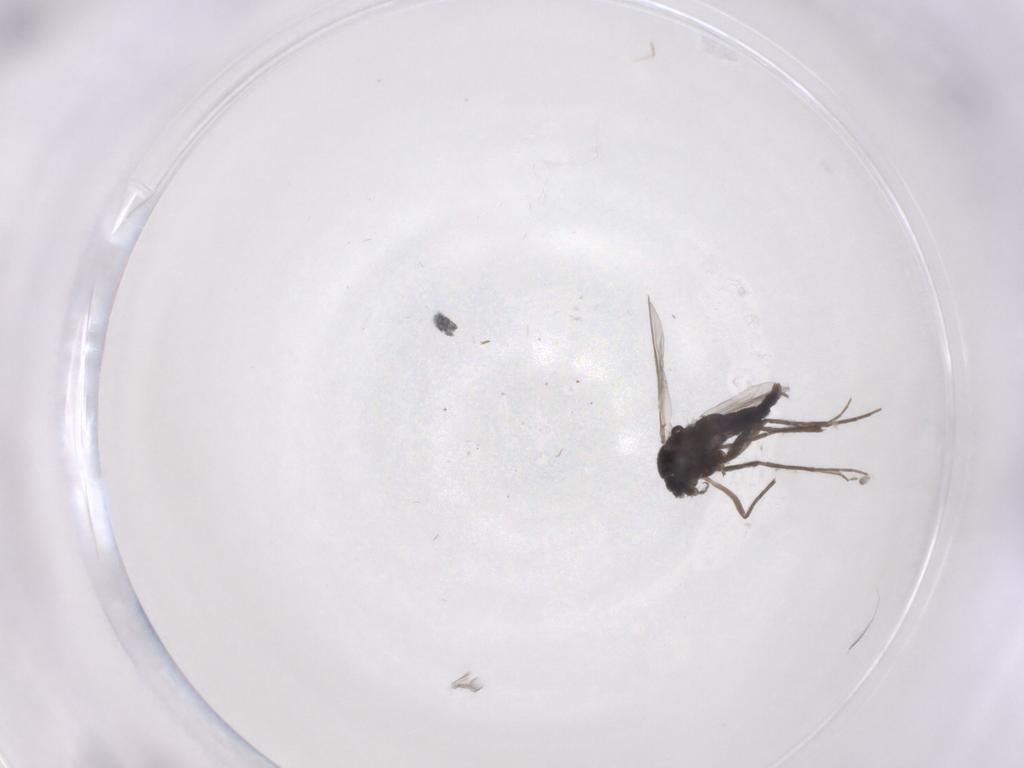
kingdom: Animalia
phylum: Arthropoda
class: Insecta
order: Diptera
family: Chironomidae
